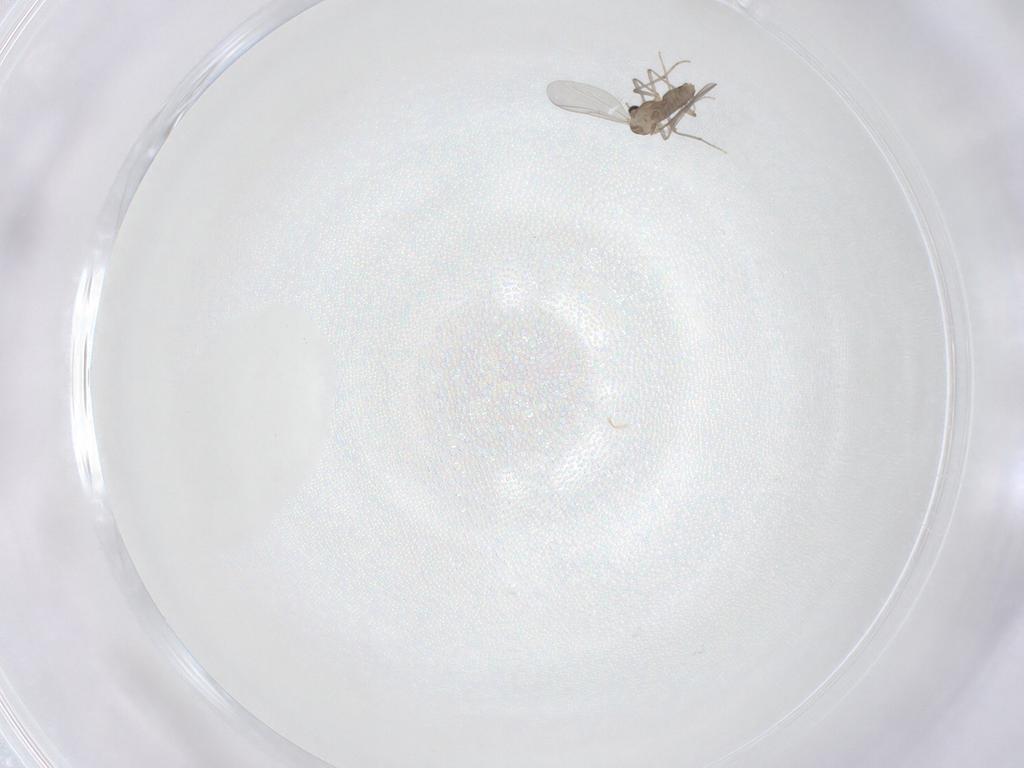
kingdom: Animalia
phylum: Arthropoda
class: Insecta
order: Diptera
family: Chironomidae
